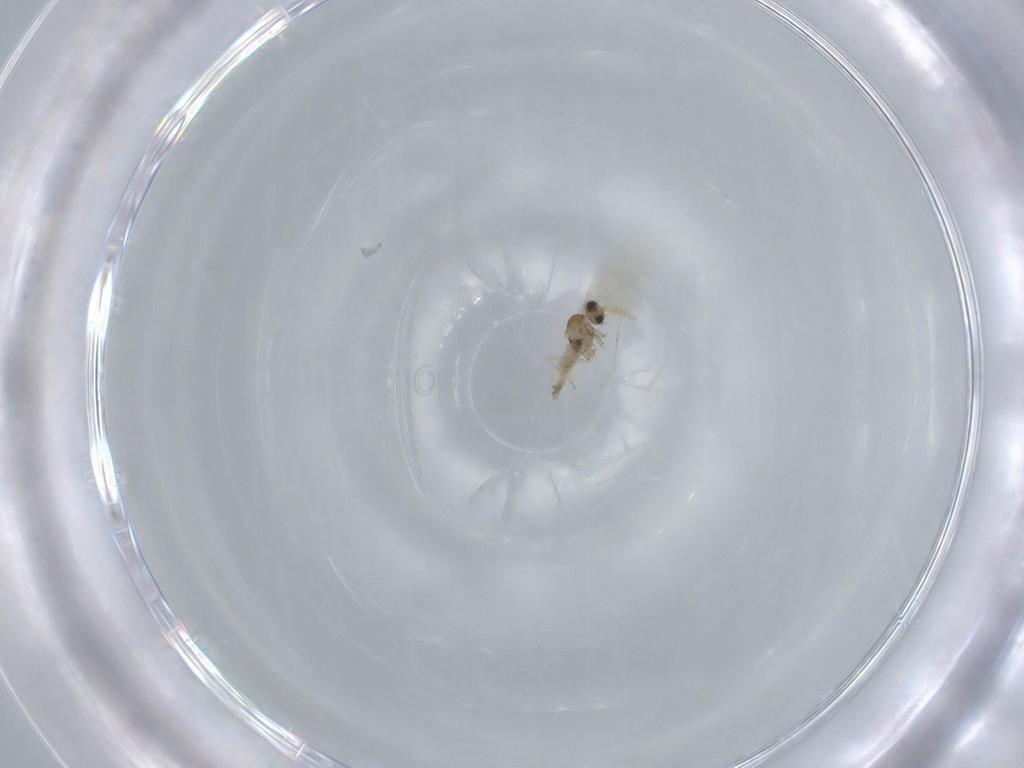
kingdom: Animalia
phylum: Arthropoda
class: Insecta
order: Diptera
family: Cecidomyiidae
